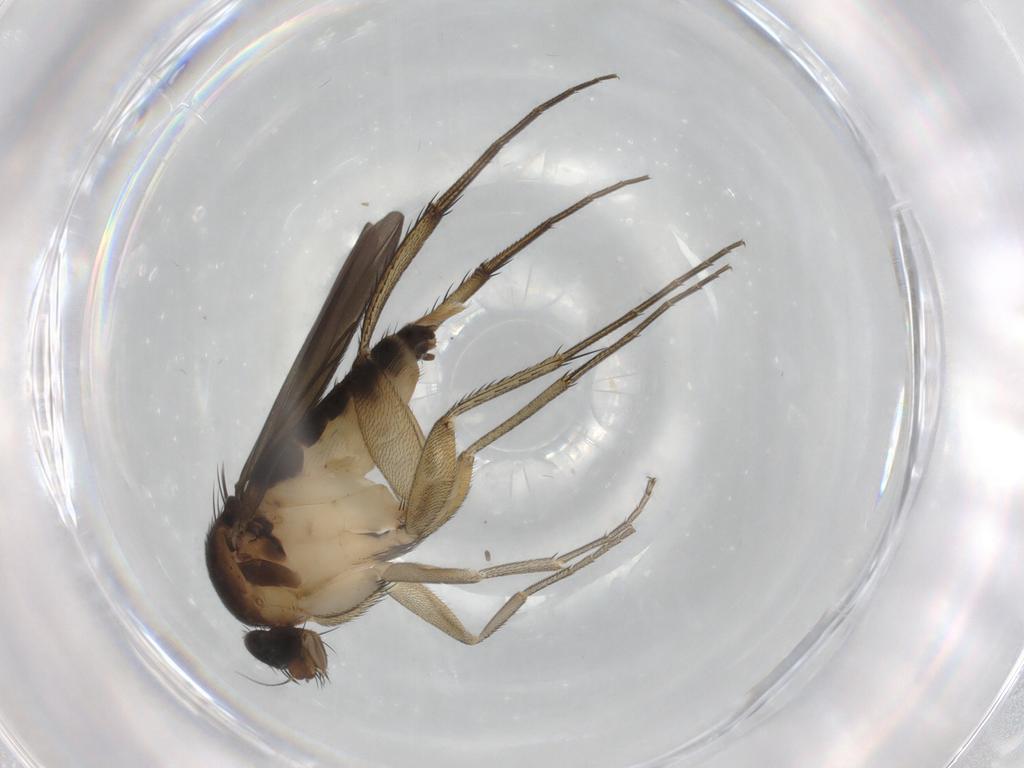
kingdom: Animalia
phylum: Arthropoda
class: Insecta
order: Diptera
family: Phoridae
